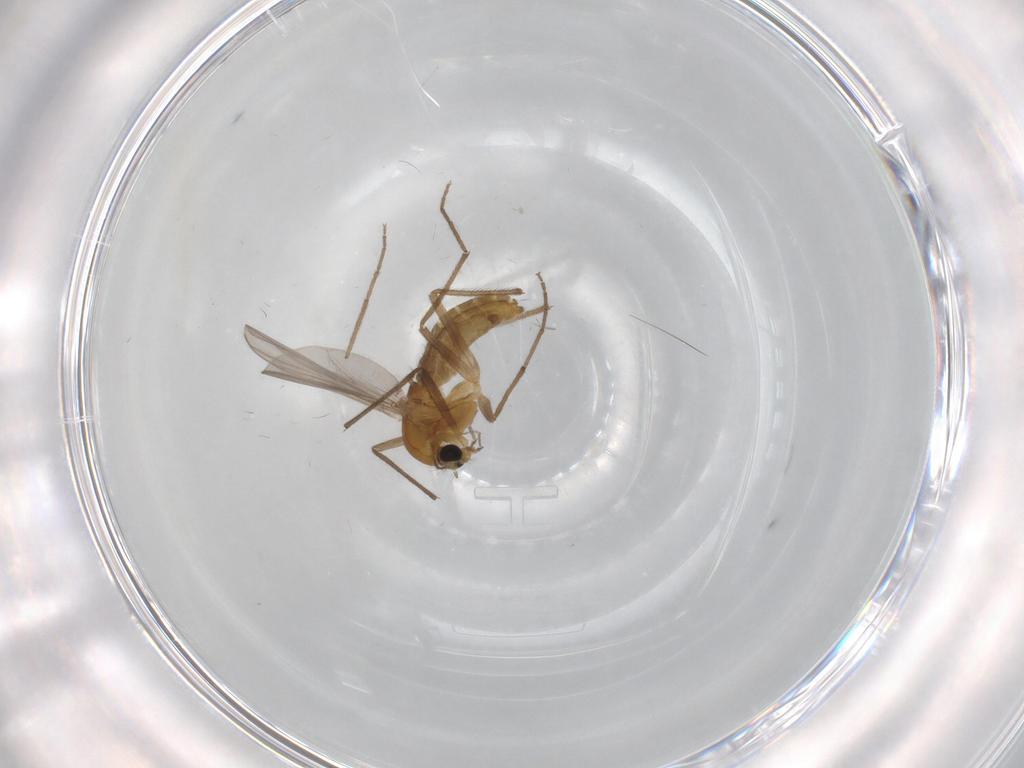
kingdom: Animalia
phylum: Arthropoda
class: Insecta
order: Diptera
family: Chironomidae
